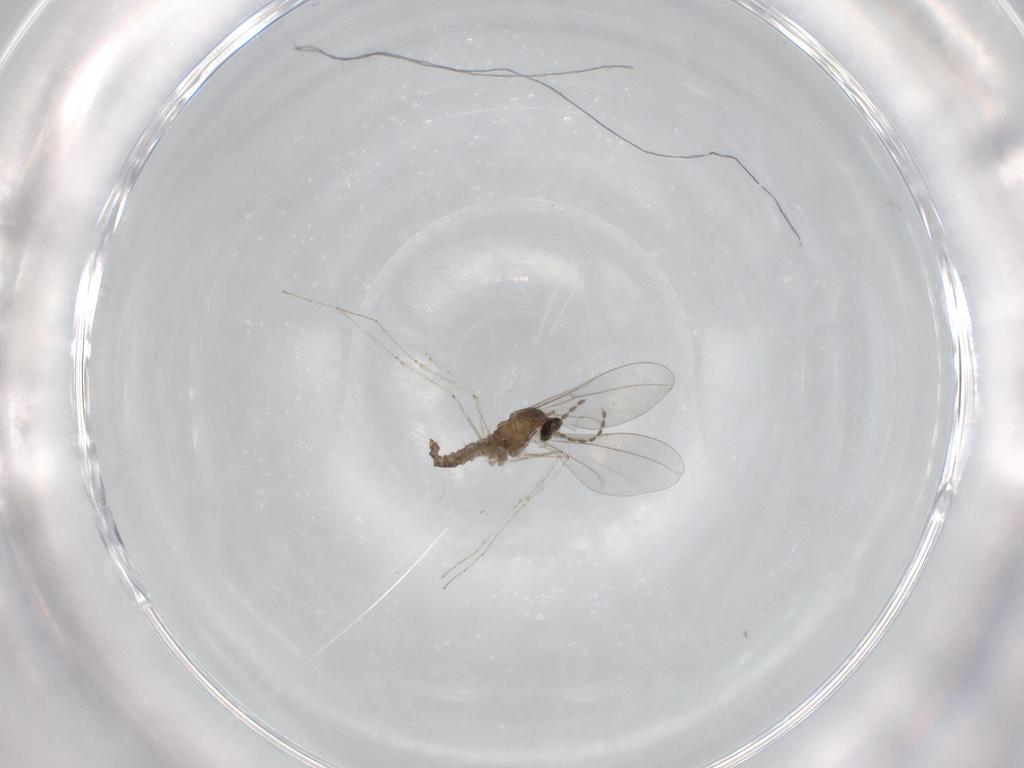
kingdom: Animalia
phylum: Arthropoda
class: Insecta
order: Diptera
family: Cecidomyiidae
